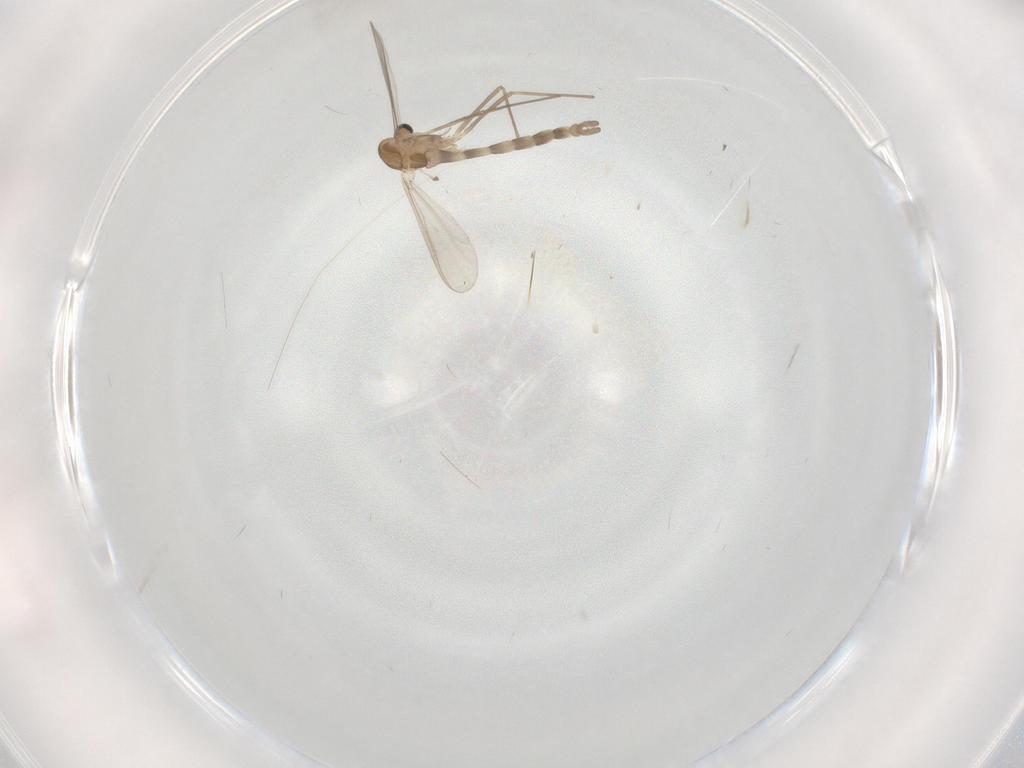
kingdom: Animalia
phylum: Arthropoda
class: Insecta
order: Diptera
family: Chironomidae
